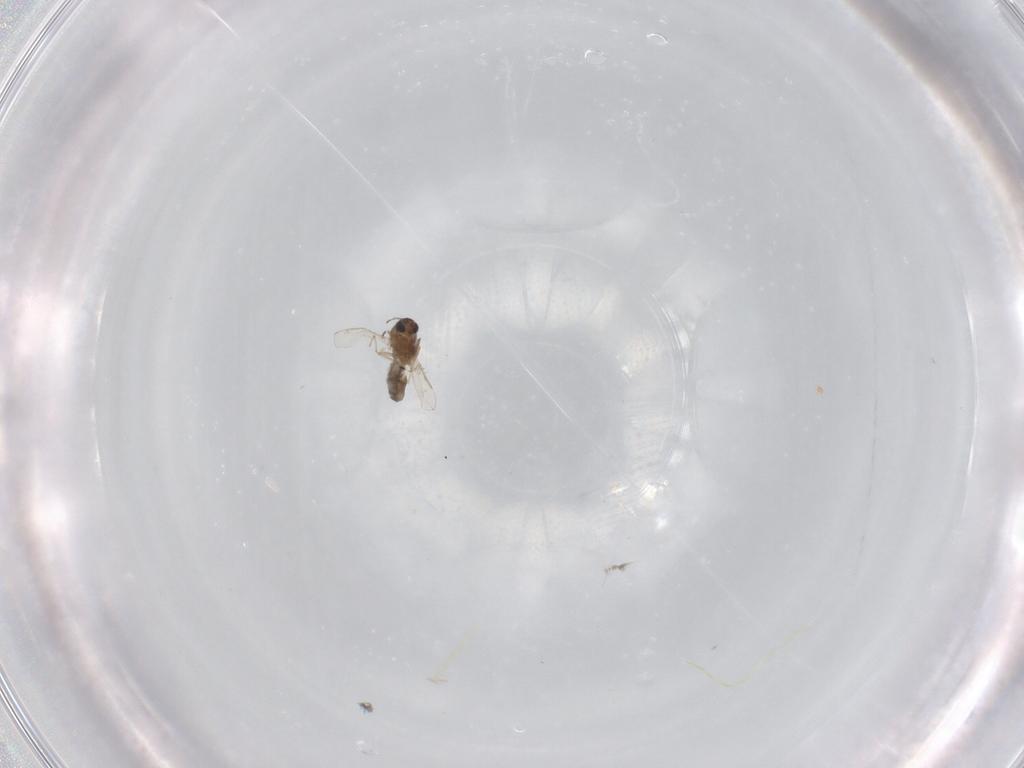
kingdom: Animalia
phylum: Arthropoda
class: Insecta
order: Diptera
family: Chironomidae
